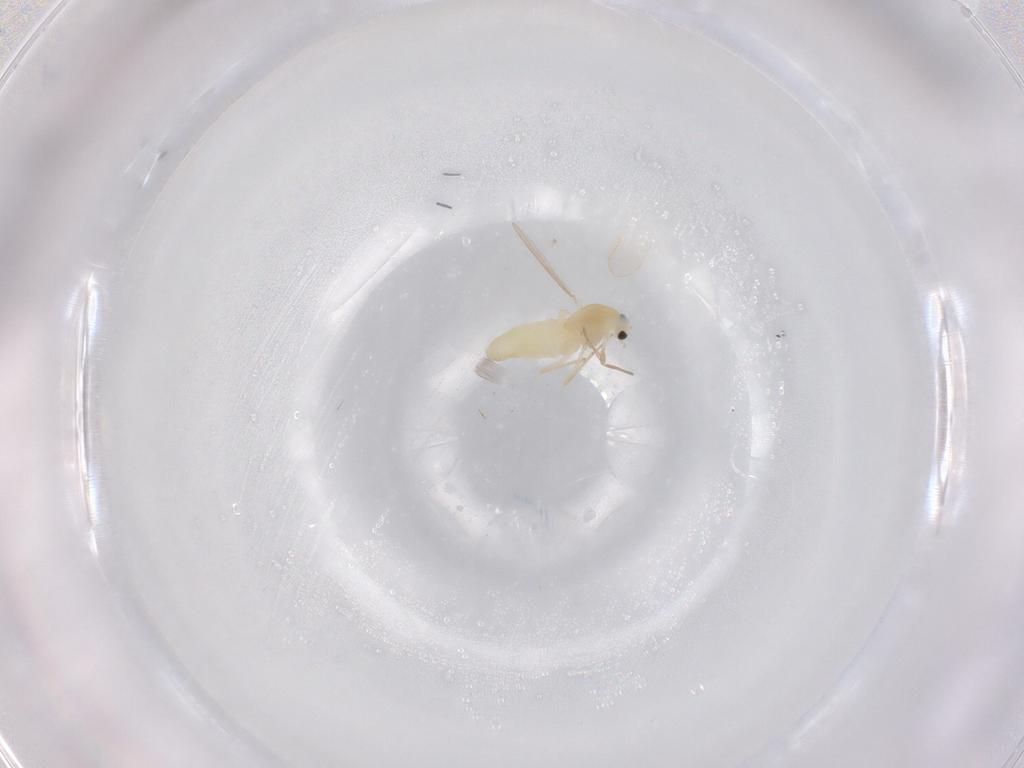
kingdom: Animalia
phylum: Arthropoda
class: Insecta
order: Diptera
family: Chironomidae
